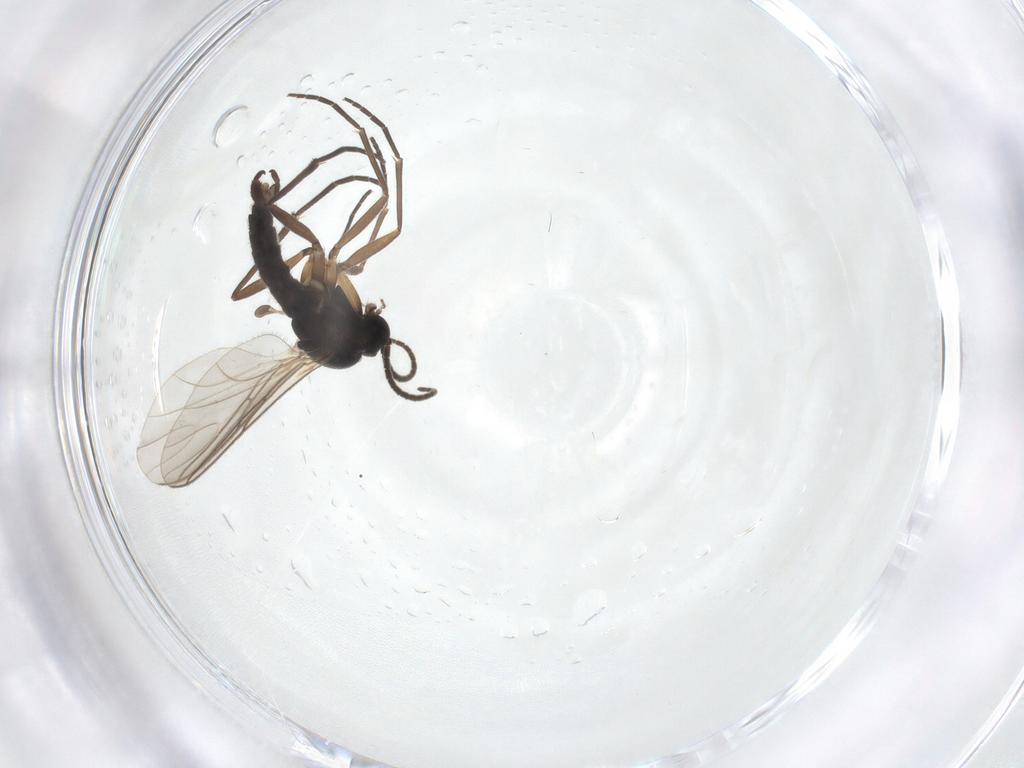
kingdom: Animalia
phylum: Arthropoda
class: Insecta
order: Diptera
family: Sciaridae
